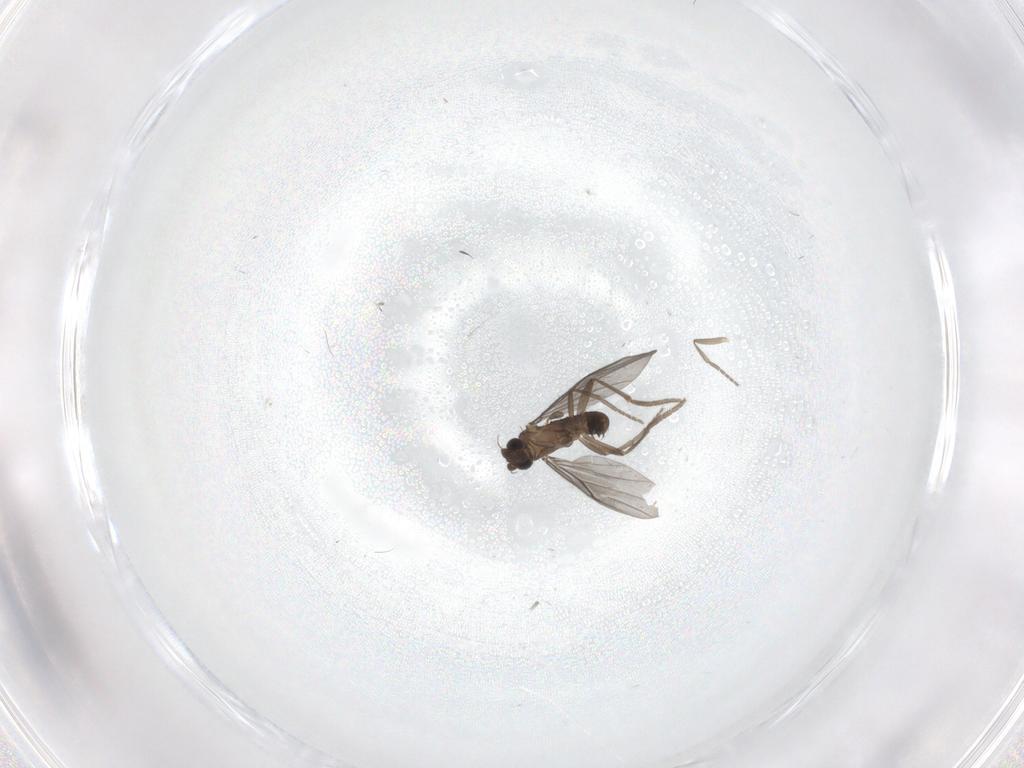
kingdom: Animalia
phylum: Arthropoda
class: Insecta
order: Diptera
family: Phoridae
